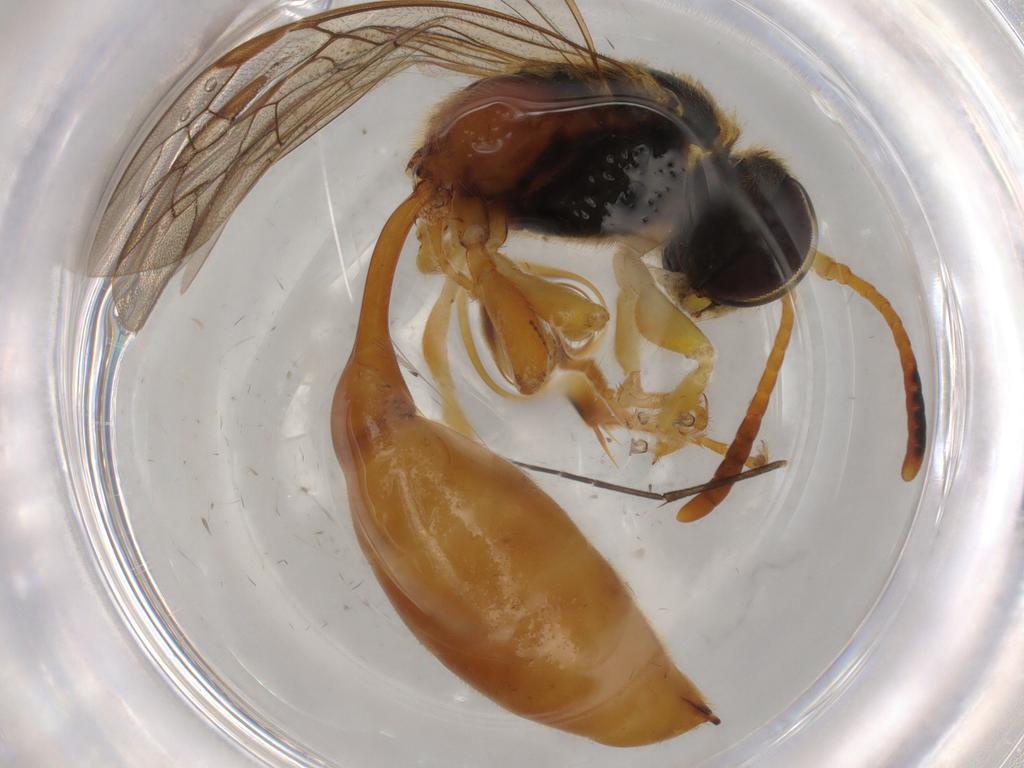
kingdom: Animalia
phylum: Arthropoda
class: Insecta
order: Hymenoptera
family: Psenidae
